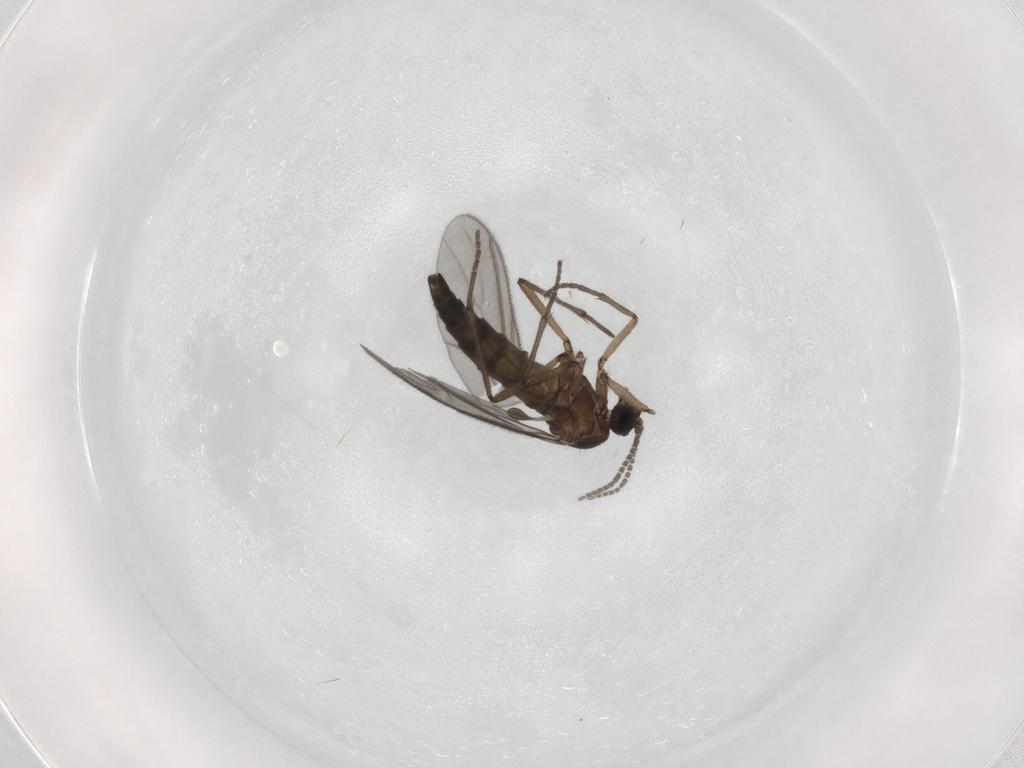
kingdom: Animalia
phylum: Arthropoda
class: Insecta
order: Diptera
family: Sciaridae
